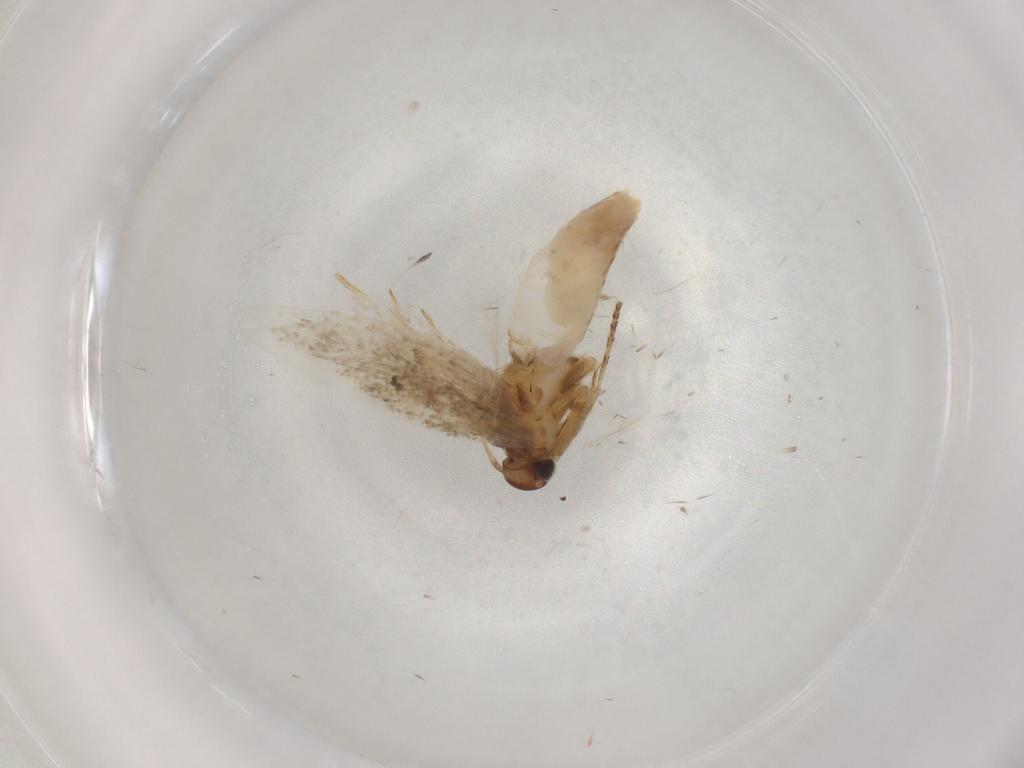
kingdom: Animalia
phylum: Arthropoda
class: Insecta
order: Lepidoptera
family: Gelechiidae
